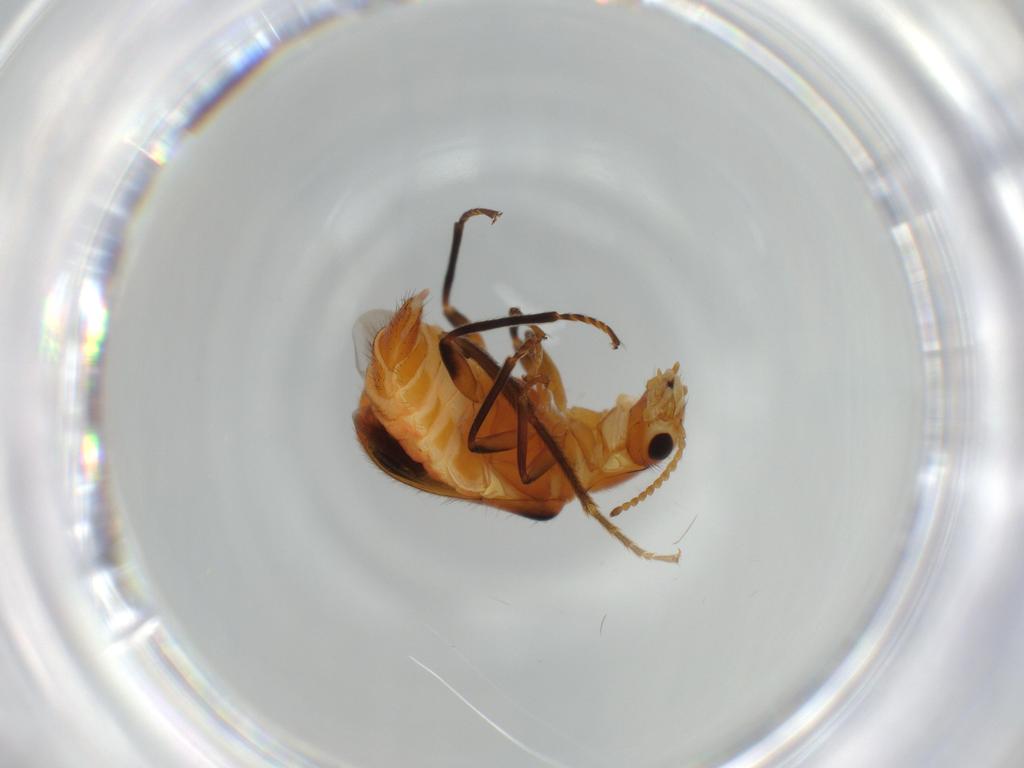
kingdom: Animalia
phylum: Arthropoda
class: Insecta
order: Coleoptera
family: Melyridae
